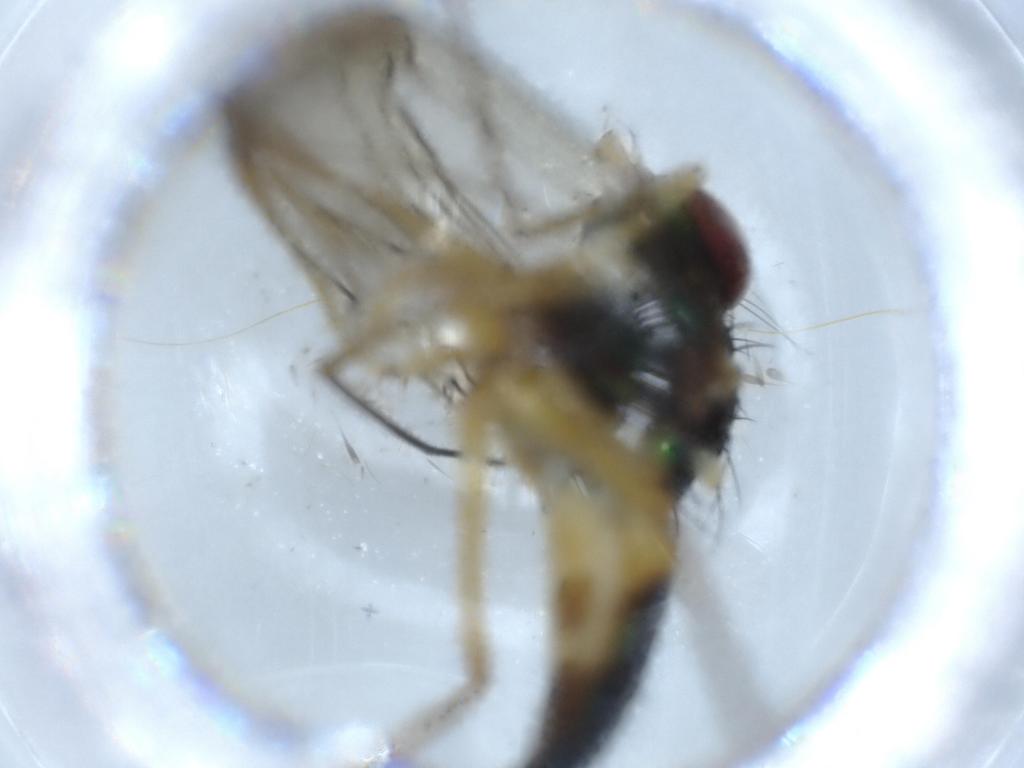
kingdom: Animalia
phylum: Arthropoda
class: Insecta
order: Diptera
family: Dolichopodidae
